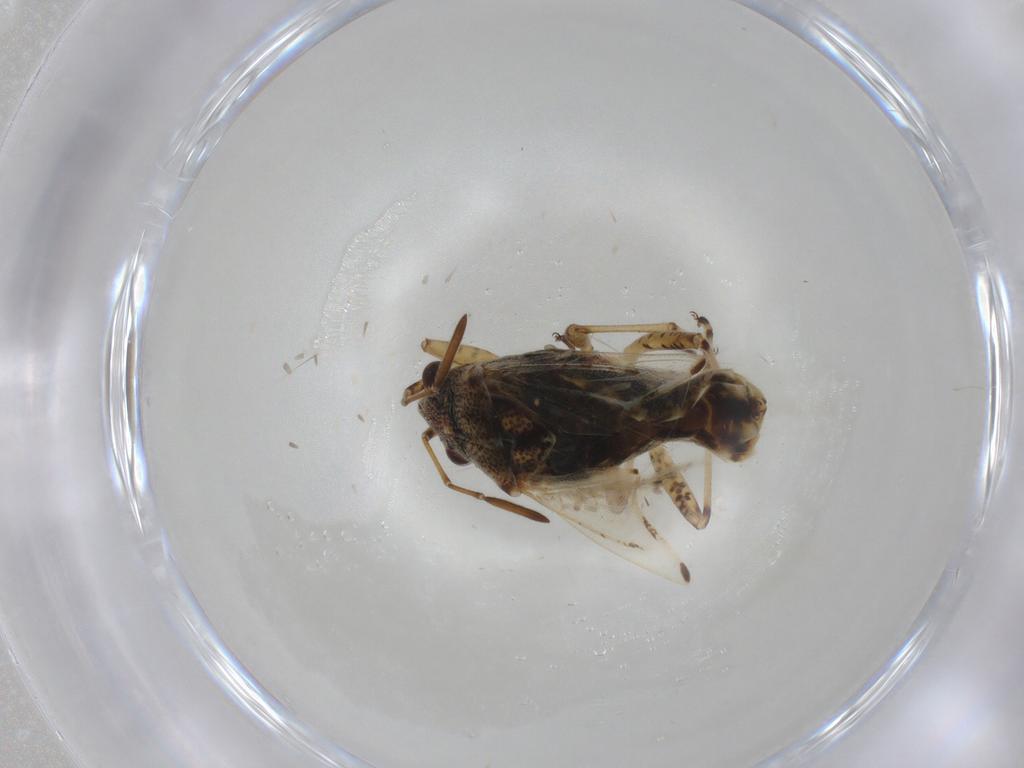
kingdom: Animalia
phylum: Arthropoda
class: Insecta
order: Hemiptera
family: Lygaeidae
